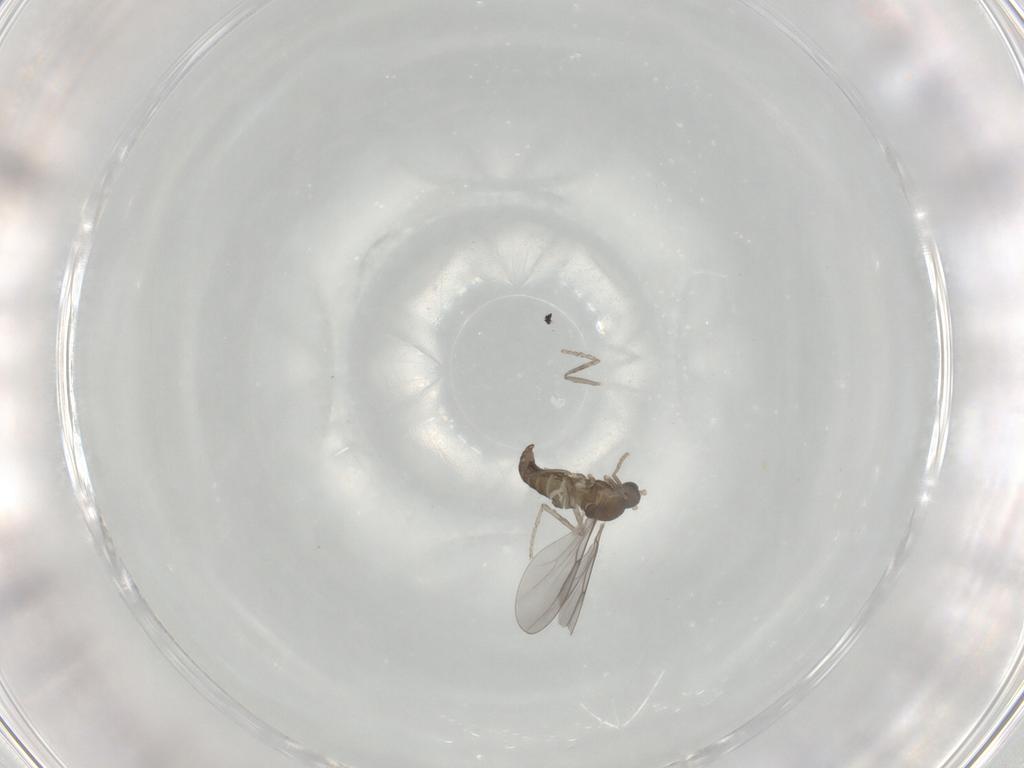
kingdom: Animalia
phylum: Arthropoda
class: Insecta
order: Diptera
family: Cecidomyiidae
